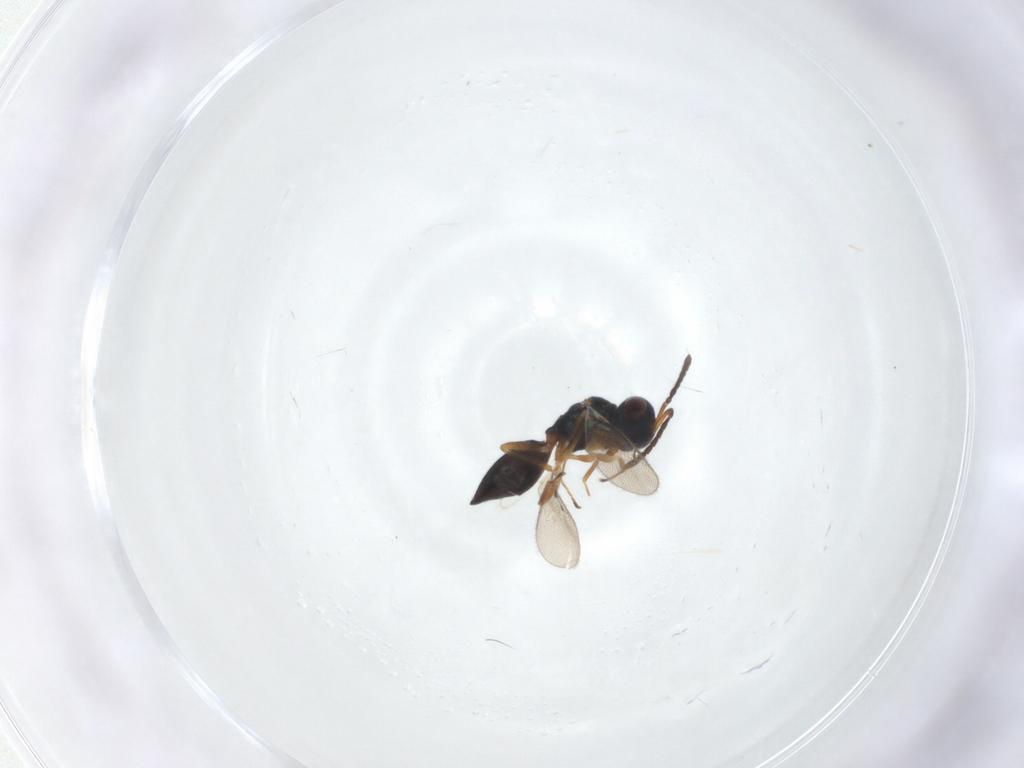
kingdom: Animalia
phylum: Arthropoda
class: Insecta
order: Hymenoptera
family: Pteromalidae
